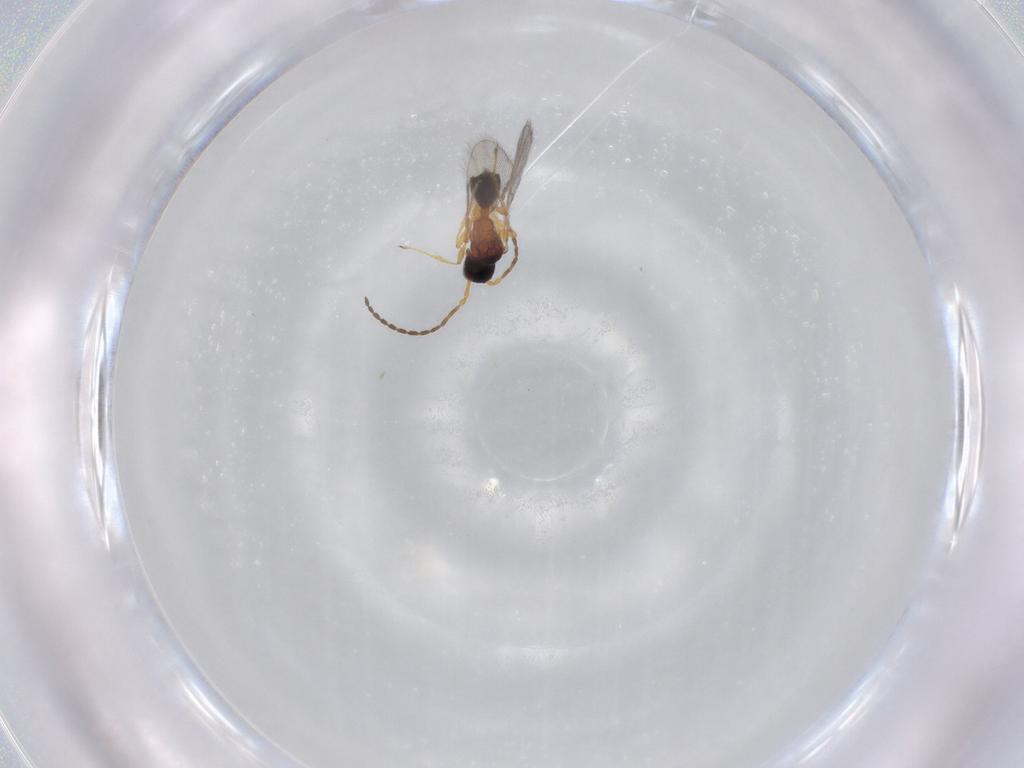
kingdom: Animalia
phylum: Arthropoda
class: Insecta
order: Hymenoptera
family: Diapriidae
